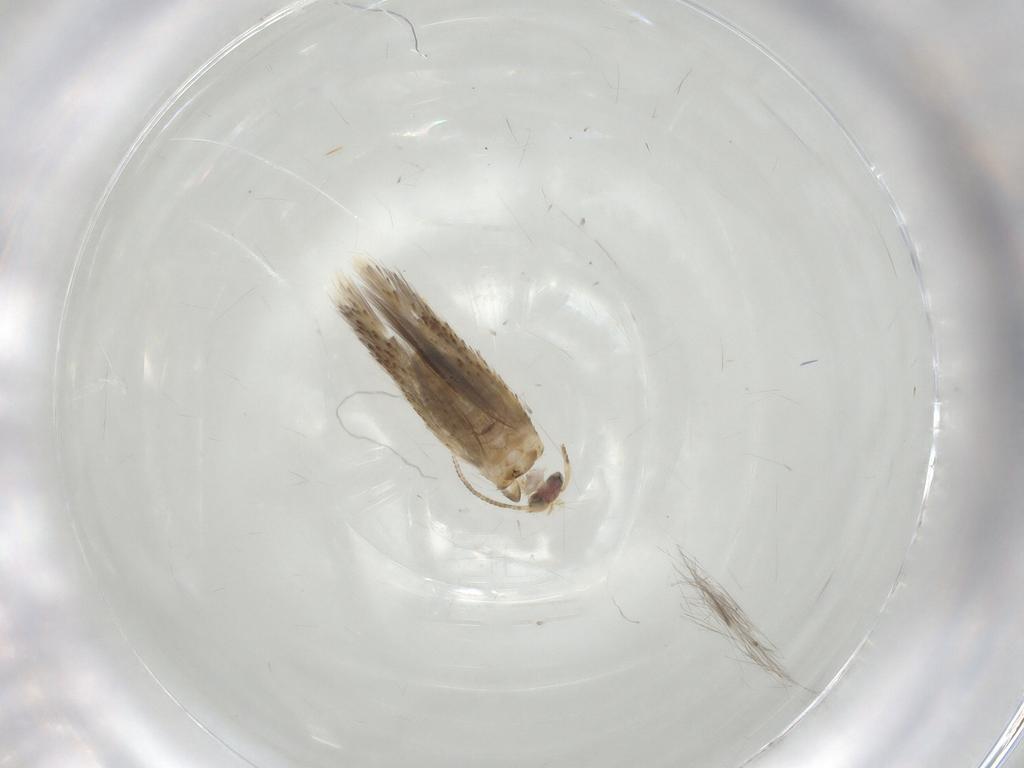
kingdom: Animalia
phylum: Arthropoda
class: Insecta
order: Lepidoptera
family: Nepticulidae
